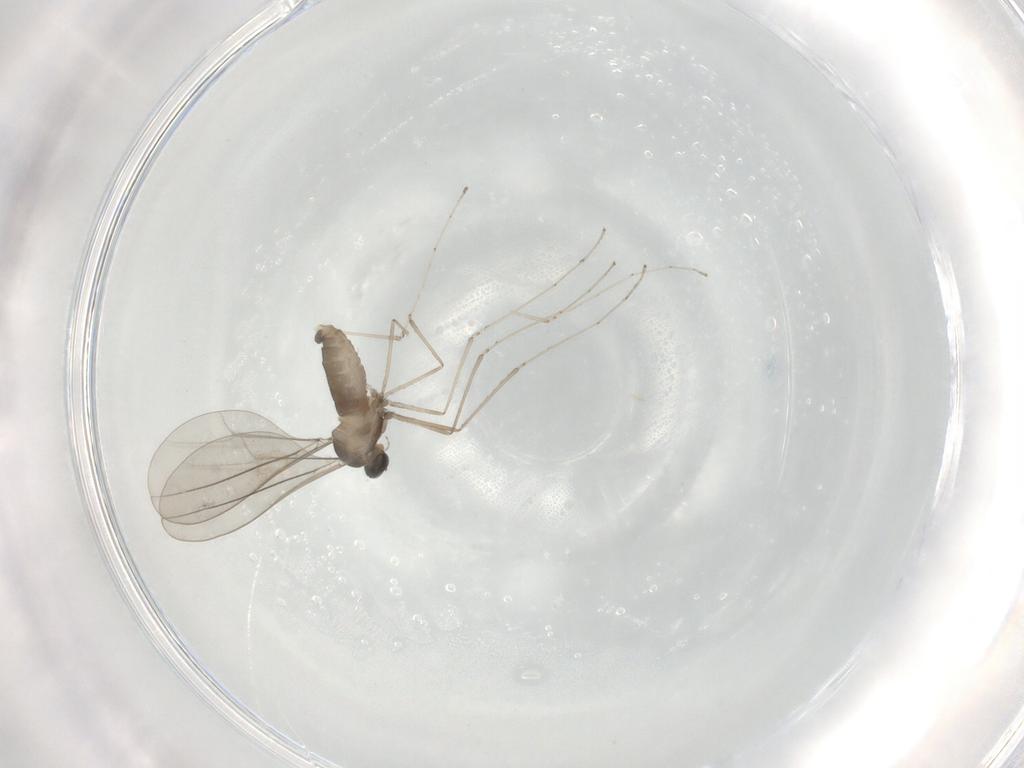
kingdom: Animalia
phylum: Arthropoda
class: Insecta
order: Diptera
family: Cecidomyiidae
